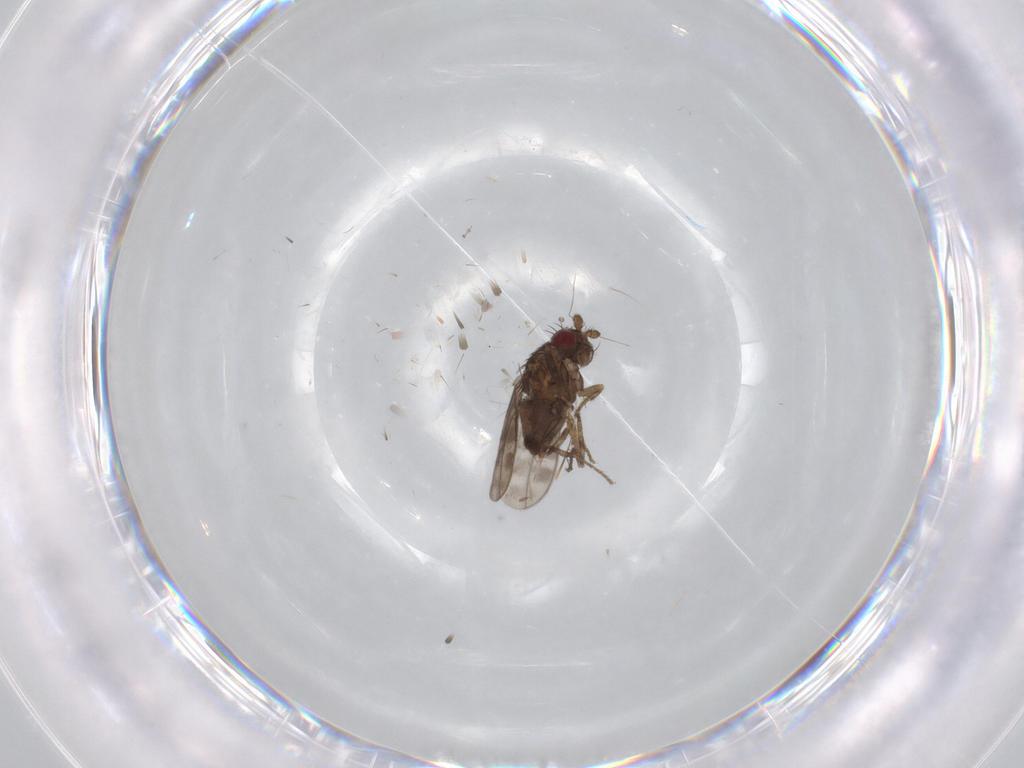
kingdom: Animalia
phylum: Arthropoda
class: Insecta
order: Diptera
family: Sphaeroceridae
